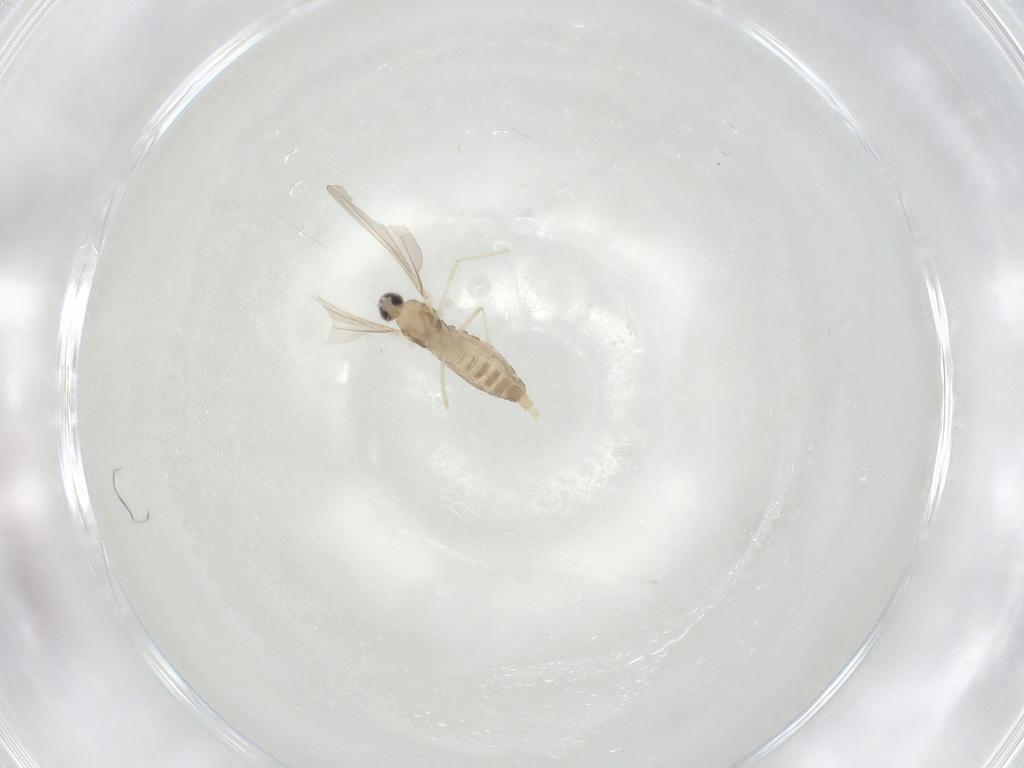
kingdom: Animalia
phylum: Arthropoda
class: Insecta
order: Diptera
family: Cecidomyiidae
